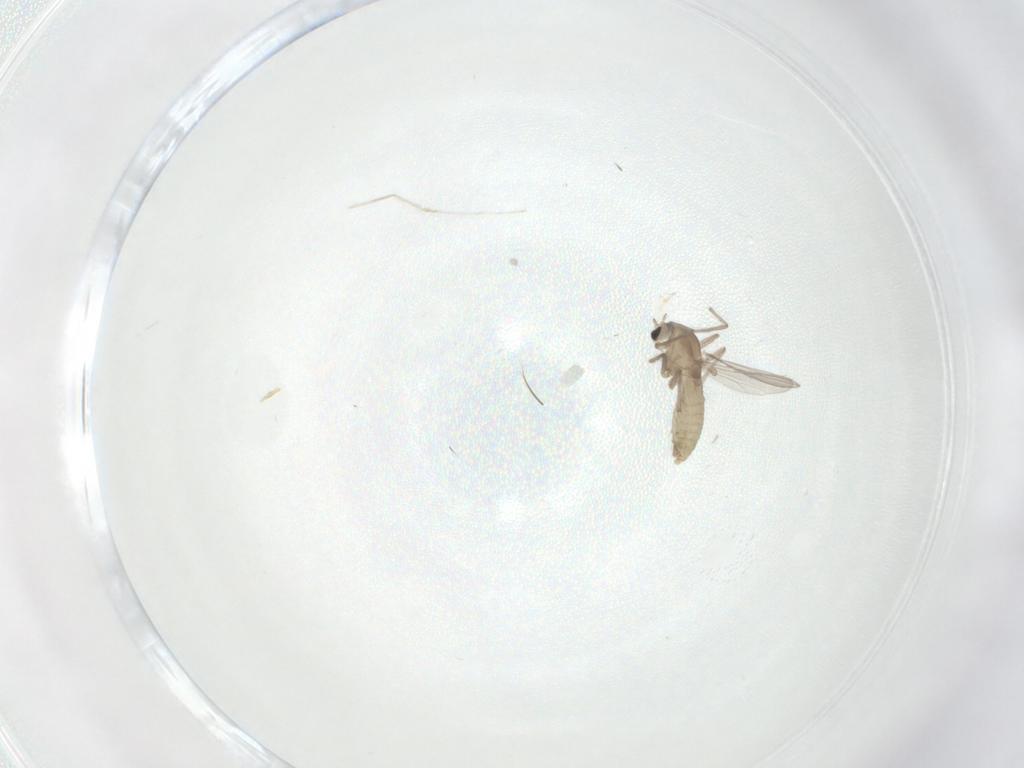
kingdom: Animalia
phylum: Arthropoda
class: Insecta
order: Diptera
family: Chironomidae
